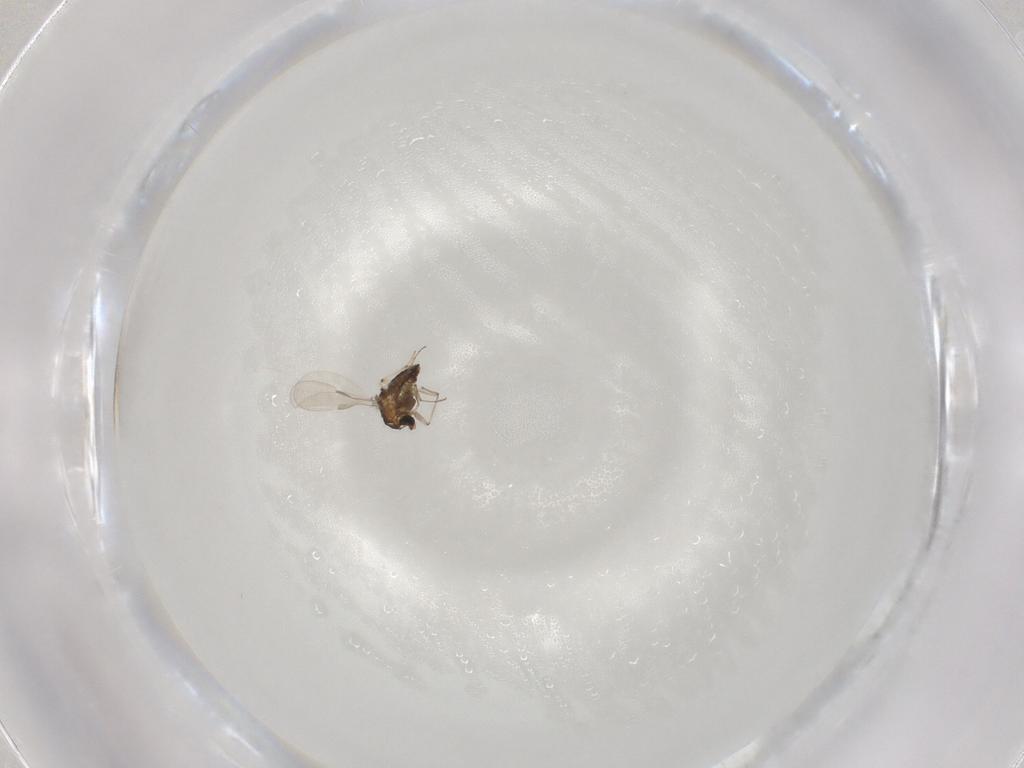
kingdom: Animalia
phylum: Arthropoda
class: Insecta
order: Diptera
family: Chironomidae
